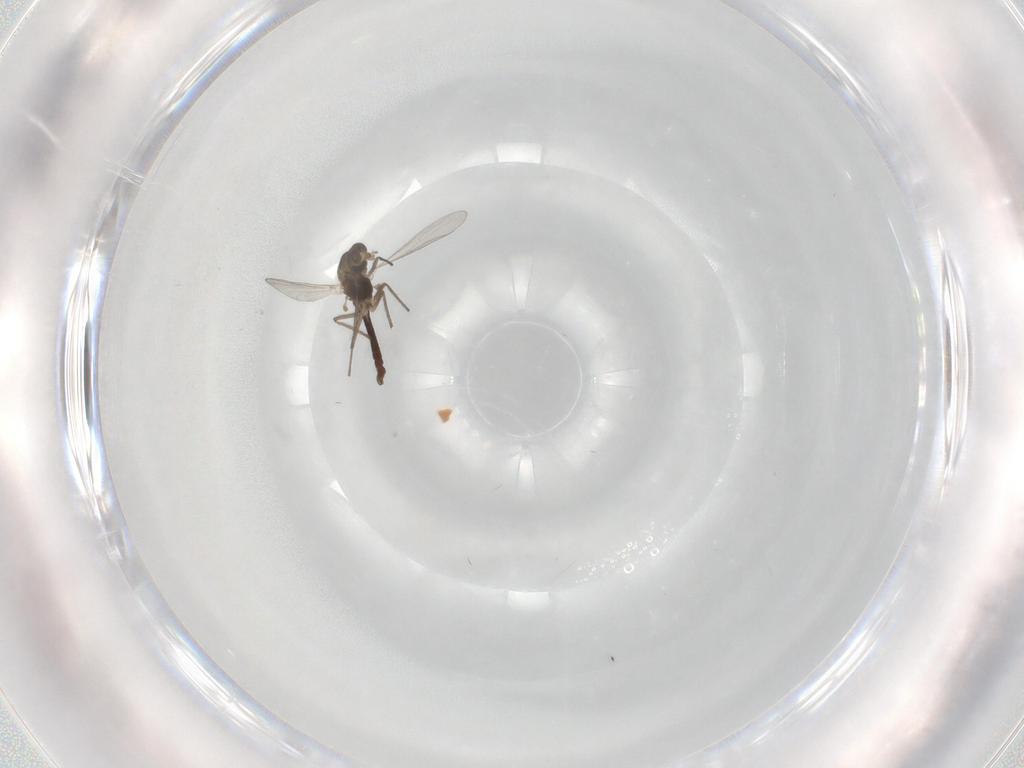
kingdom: Animalia
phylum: Arthropoda
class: Insecta
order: Diptera
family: Chironomidae
